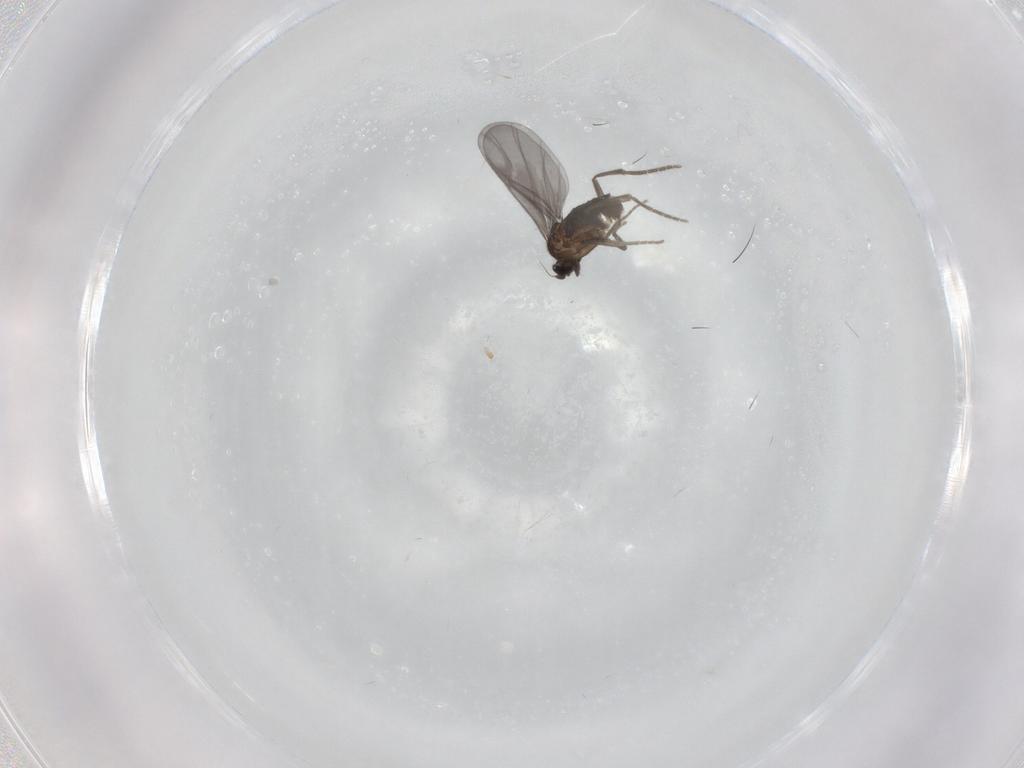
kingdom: Animalia
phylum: Arthropoda
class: Insecta
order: Diptera
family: Phoridae
